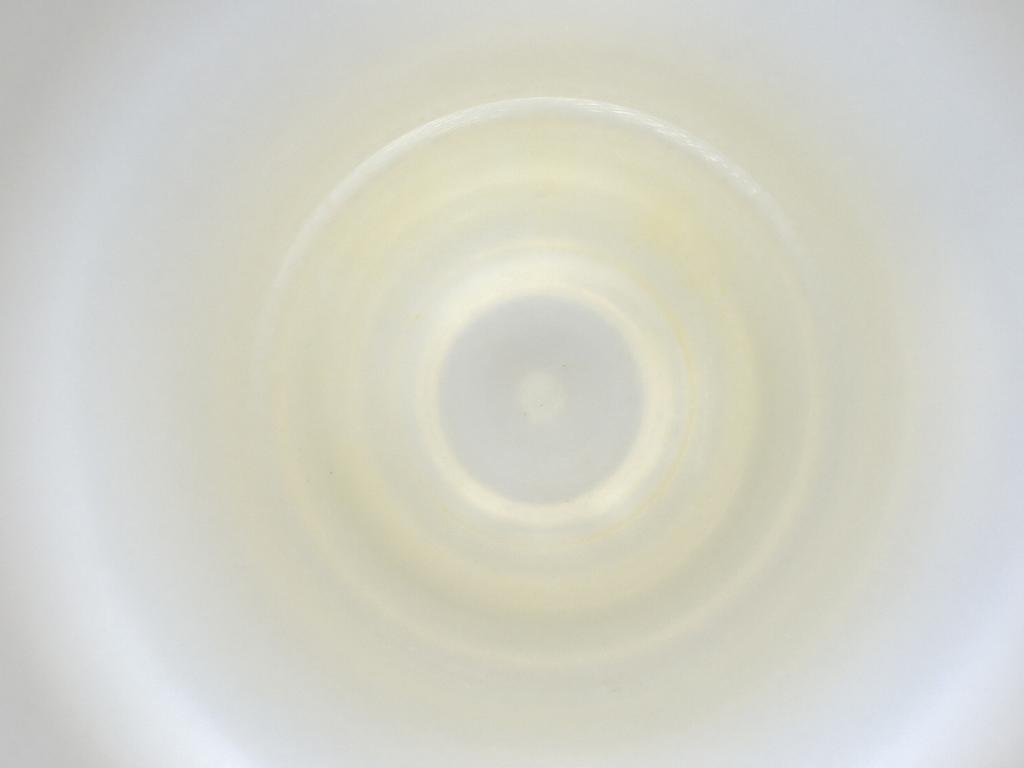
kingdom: Animalia
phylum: Arthropoda
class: Insecta
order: Diptera
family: Cecidomyiidae
